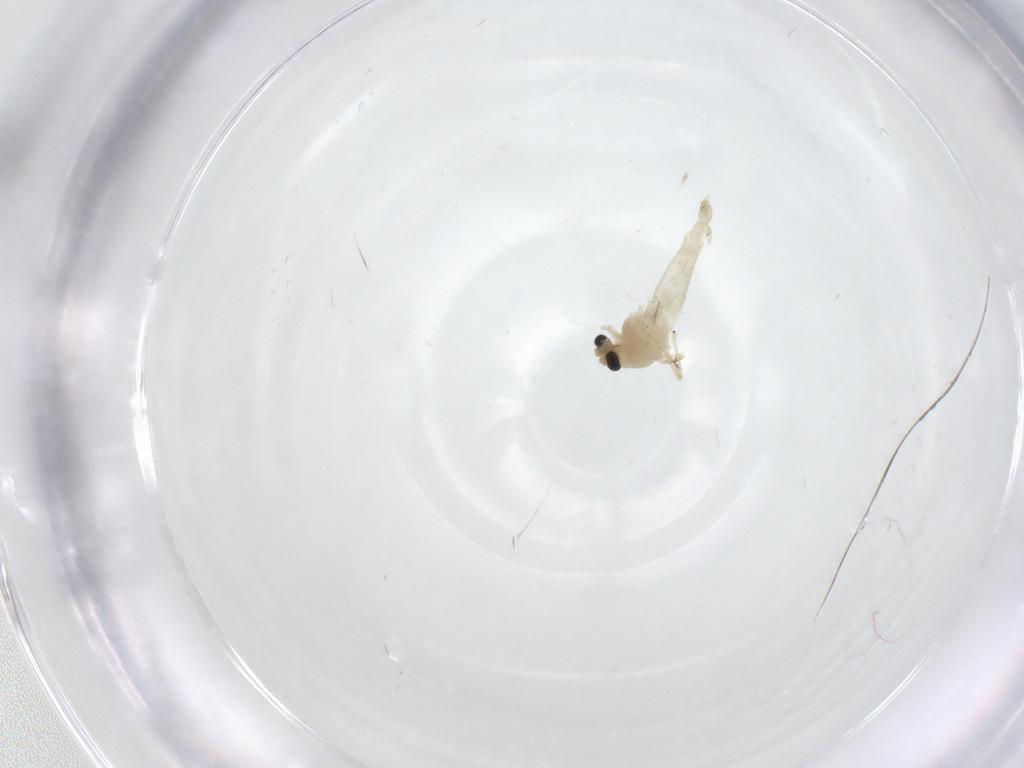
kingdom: Animalia
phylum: Arthropoda
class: Insecta
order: Diptera
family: Chironomidae
